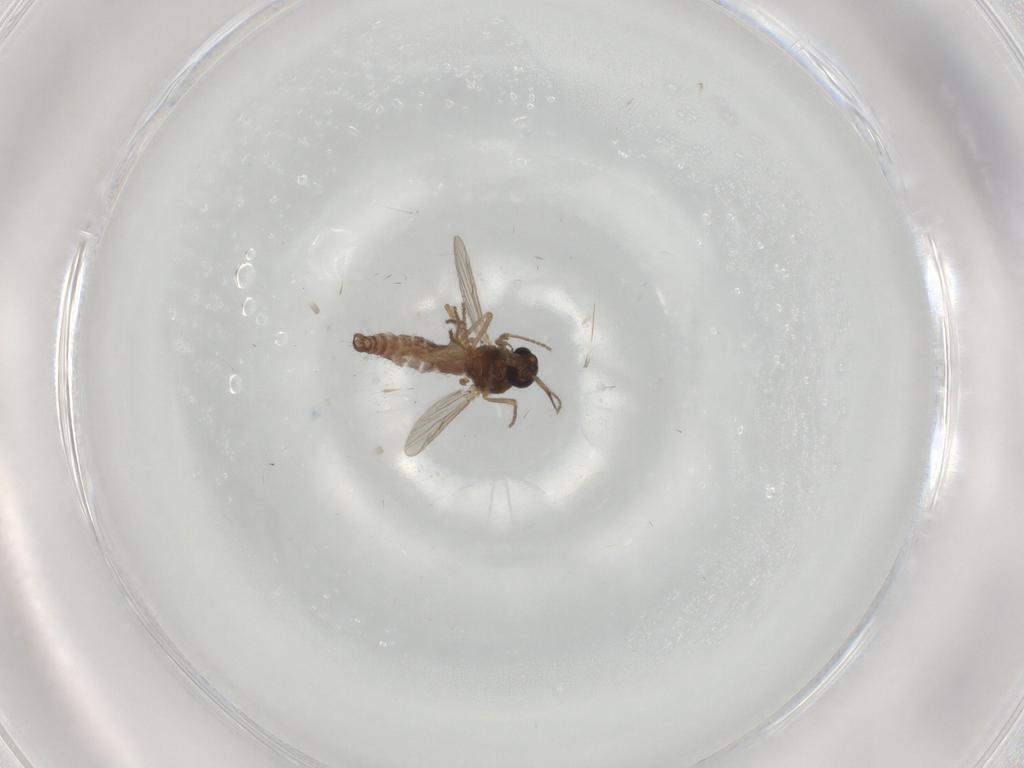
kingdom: Animalia
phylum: Arthropoda
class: Insecta
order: Diptera
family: Ceratopogonidae
